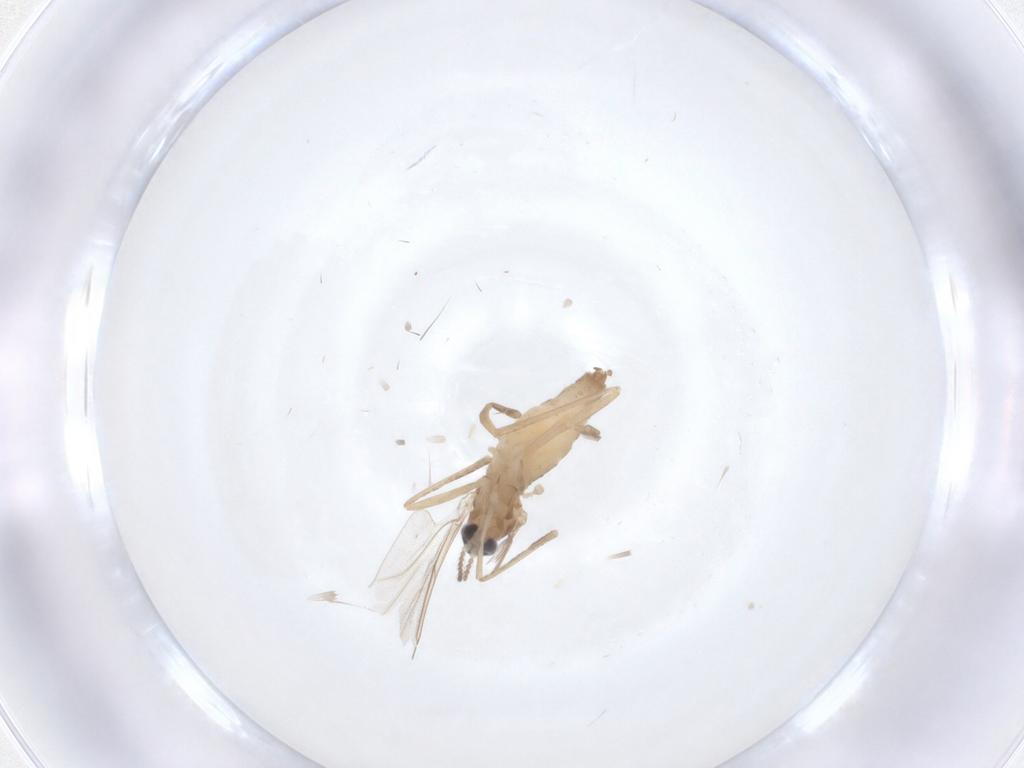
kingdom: Animalia
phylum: Arthropoda
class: Insecta
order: Diptera
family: Cecidomyiidae
